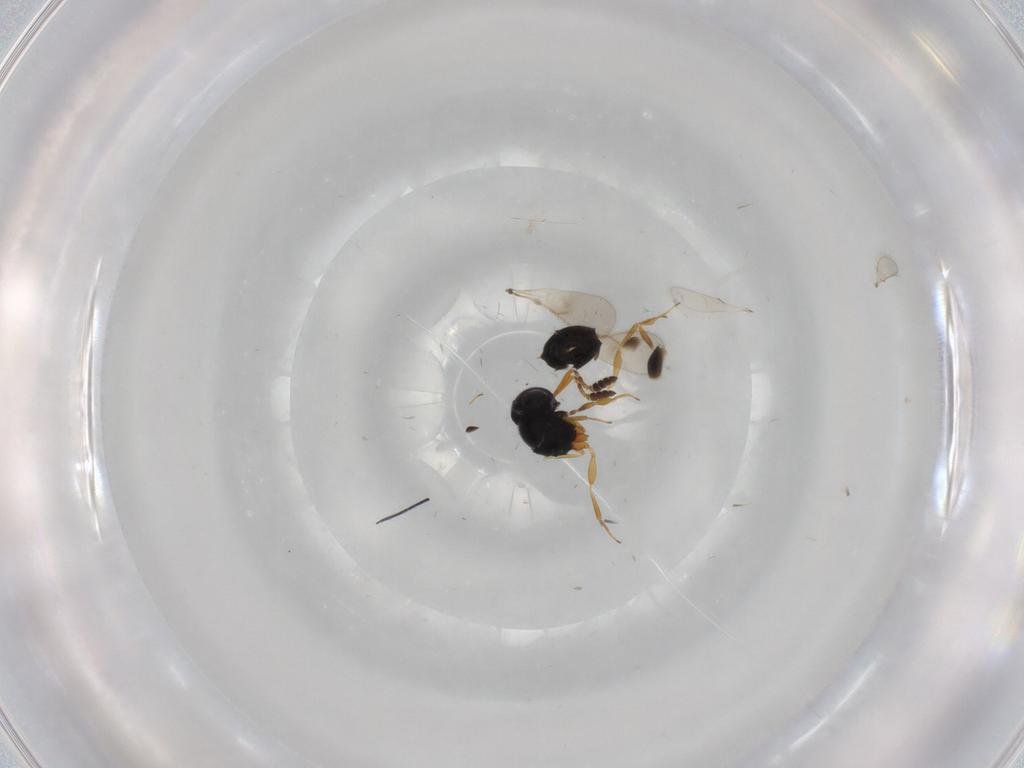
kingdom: Animalia
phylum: Arthropoda
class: Insecta
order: Hymenoptera
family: Scelionidae
